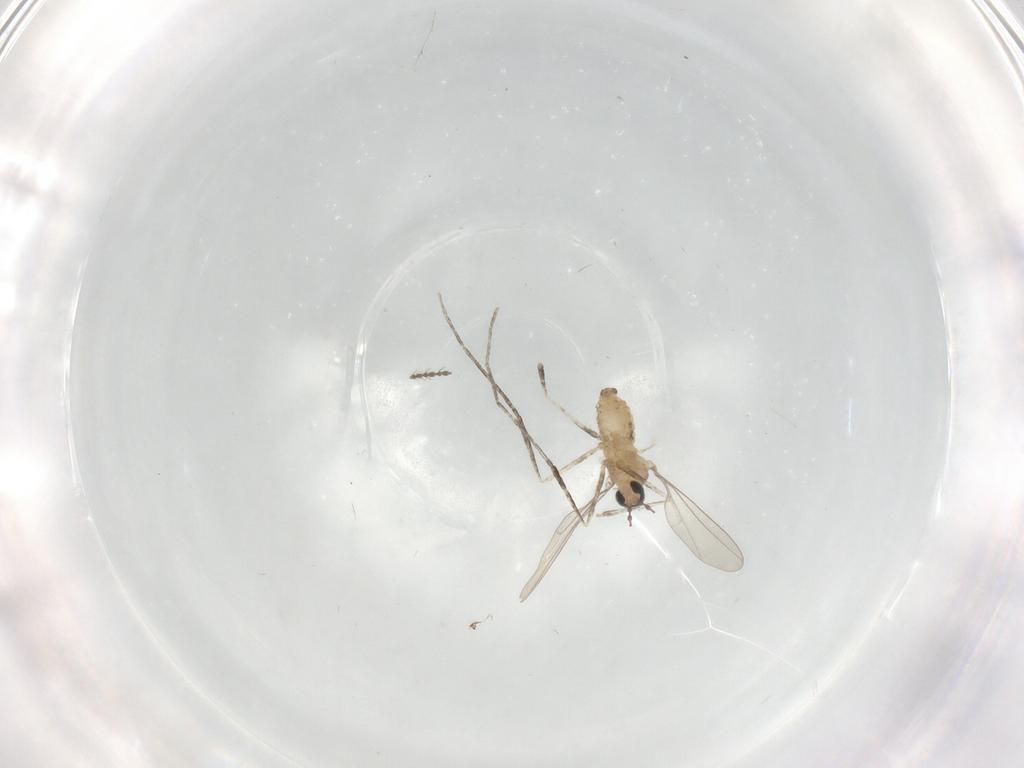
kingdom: Animalia
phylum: Arthropoda
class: Insecta
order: Diptera
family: Cecidomyiidae
